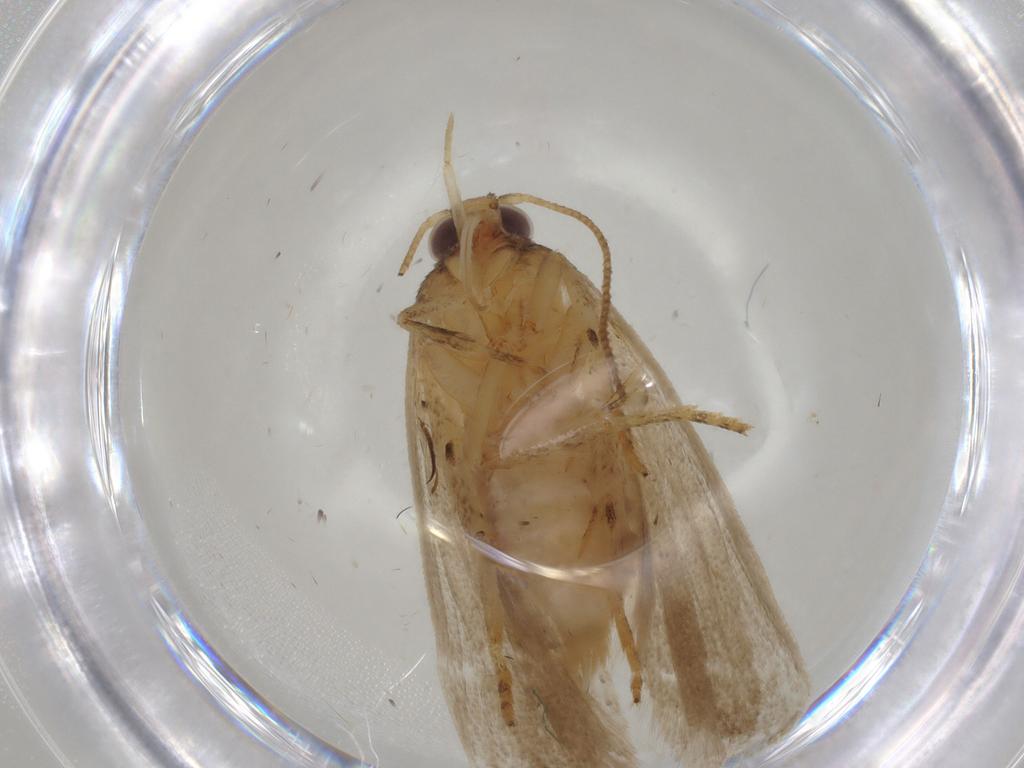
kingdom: Animalia
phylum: Arthropoda
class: Insecta
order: Lepidoptera
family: Cosmopterigidae
